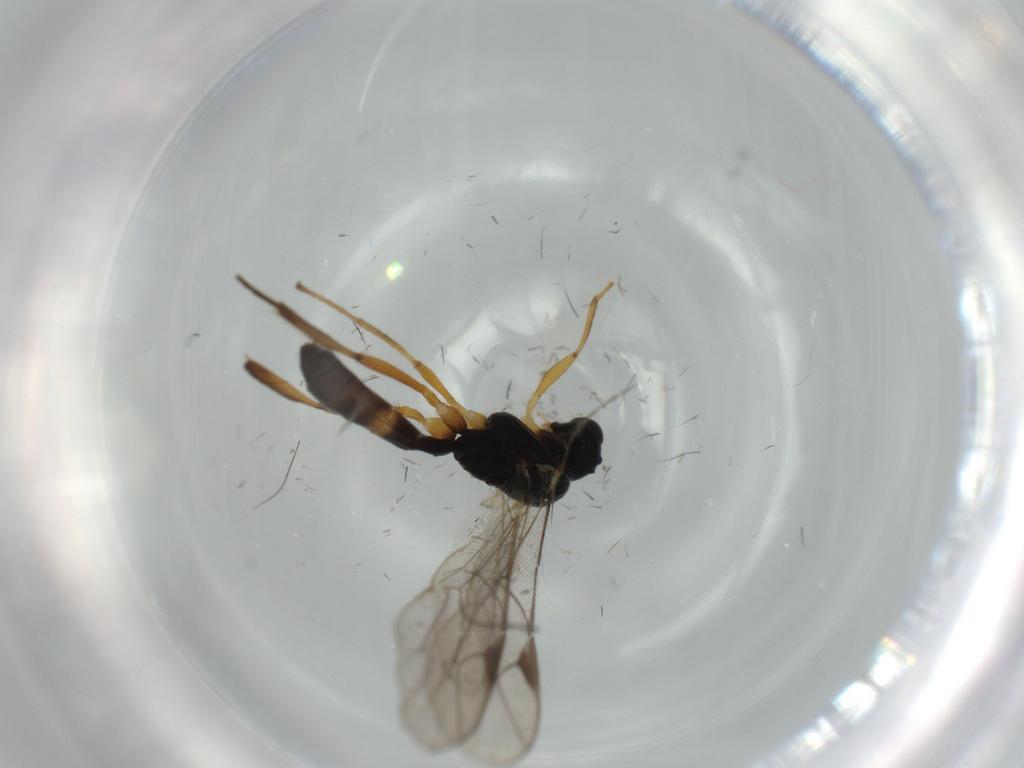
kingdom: Animalia
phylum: Arthropoda
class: Insecta
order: Hymenoptera
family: Ichneumonidae
